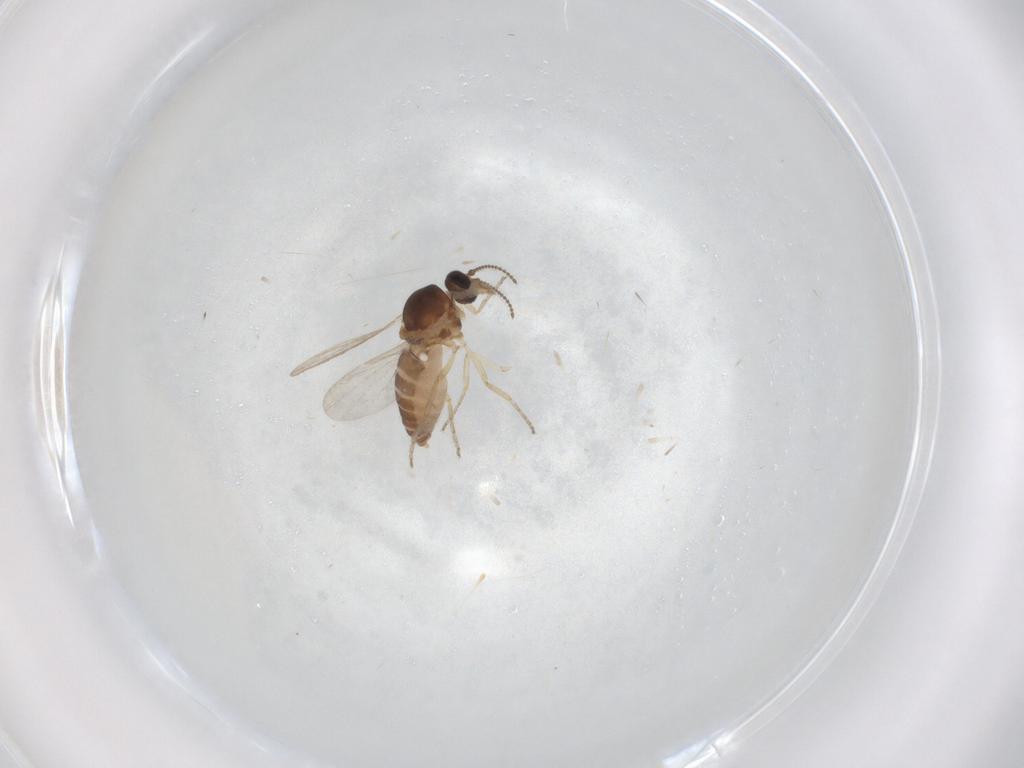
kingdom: Animalia
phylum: Arthropoda
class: Insecta
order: Diptera
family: Ceratopogonidae
